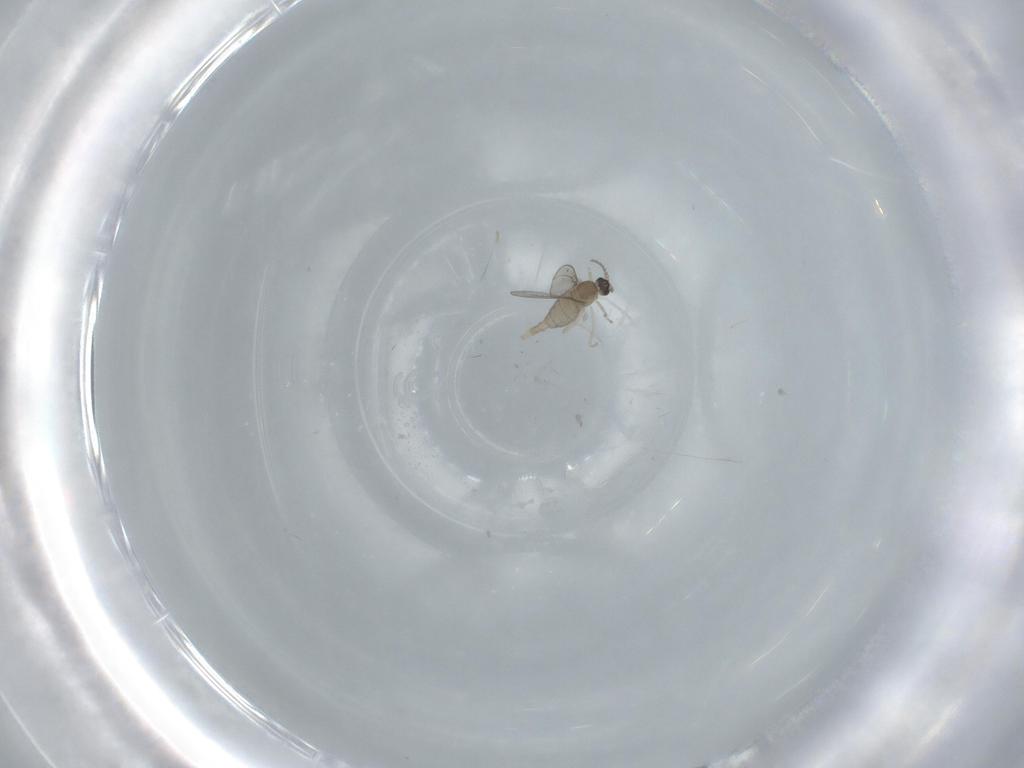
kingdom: Animalia
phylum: Arthropoda
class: Insecta
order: Diptera
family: Cecidomyiidae
